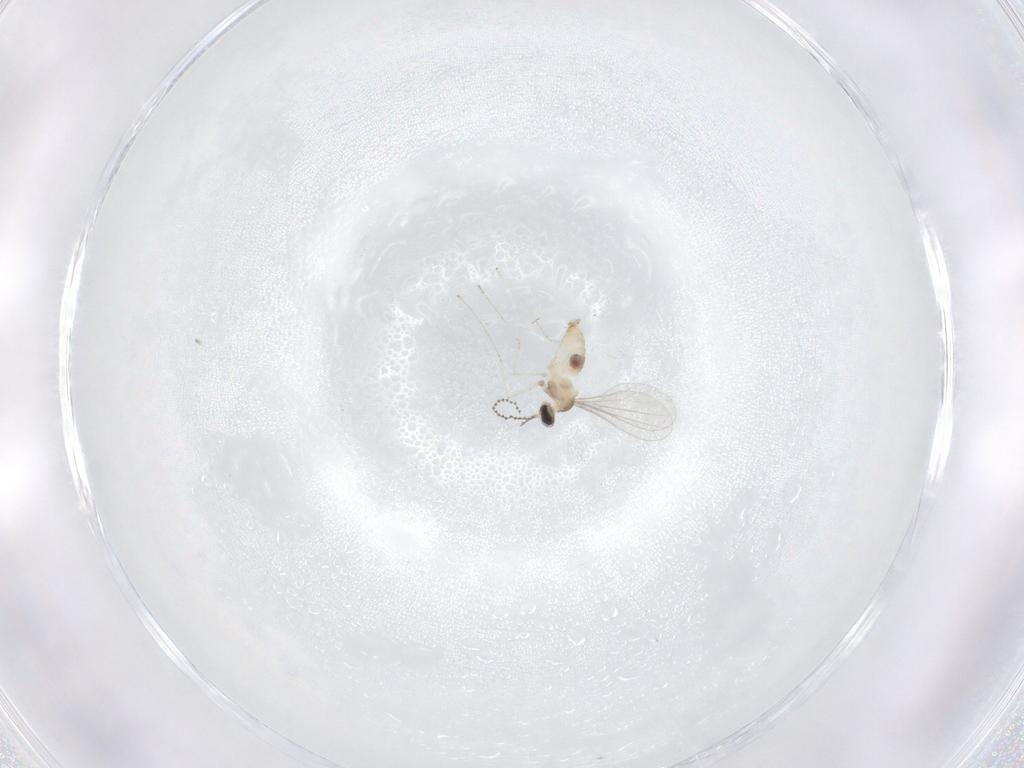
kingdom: Animalia
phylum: Arthropoda
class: Insecta
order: Diptera
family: Cecidomyiidae
